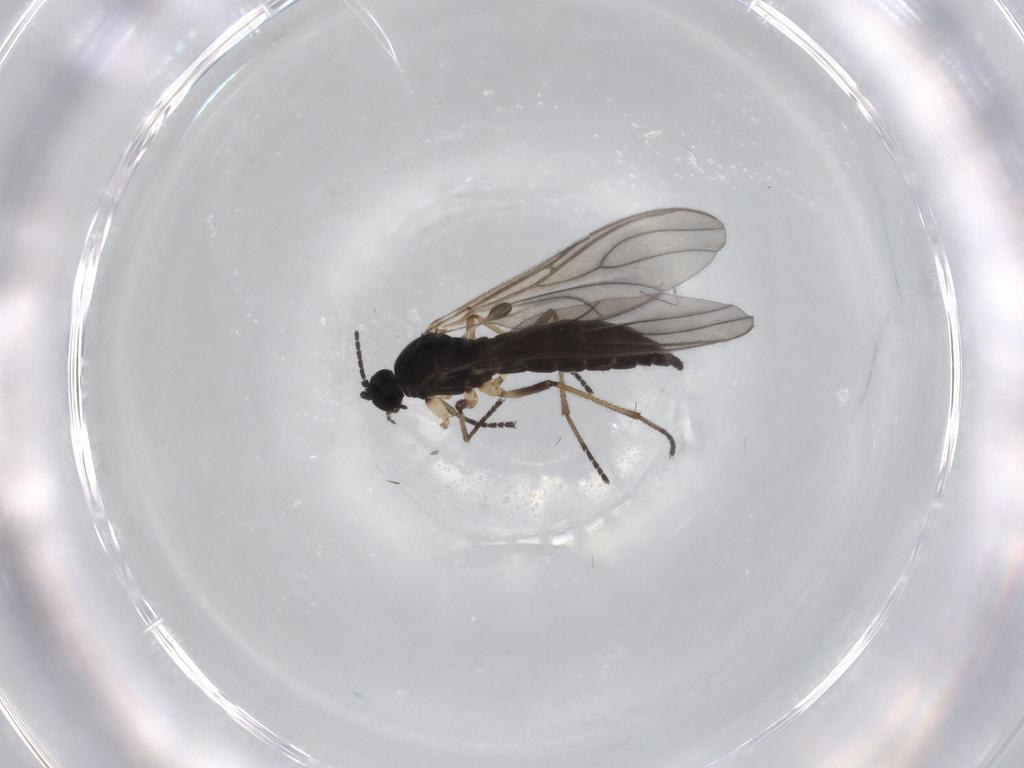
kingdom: Animalia
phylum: Arthropoda
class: Insecta
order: Diptera
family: Sciaridae
